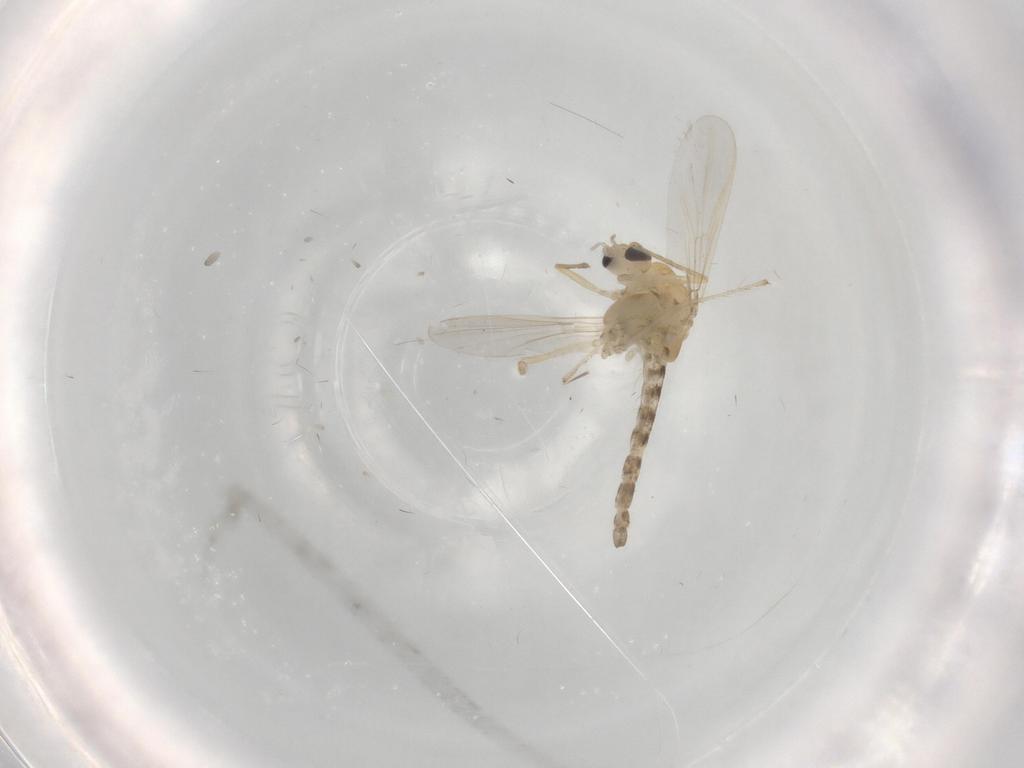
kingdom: Animalia
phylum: Arthropoda
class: Insecta
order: Diptera
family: Chironomidae
